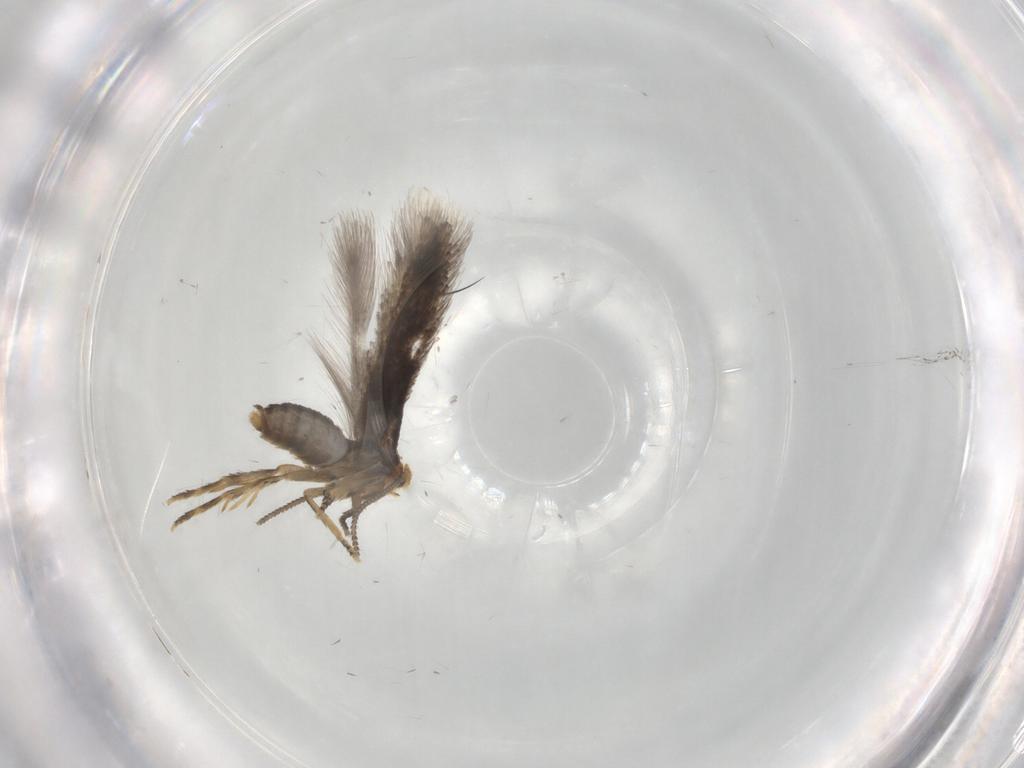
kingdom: Animalia
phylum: Arthropoda
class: Insecta
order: Lepidoptera
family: Nepticulidae
